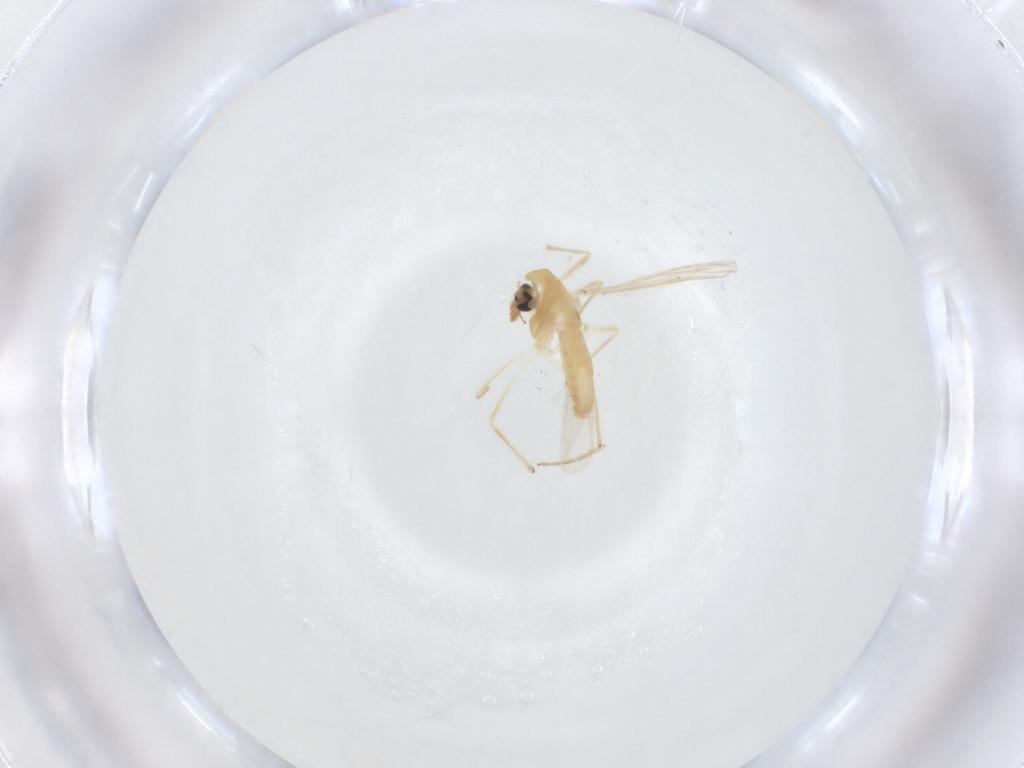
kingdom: Animalia
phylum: Arthropoda
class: Insecta
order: Diptera
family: Chironomidae
